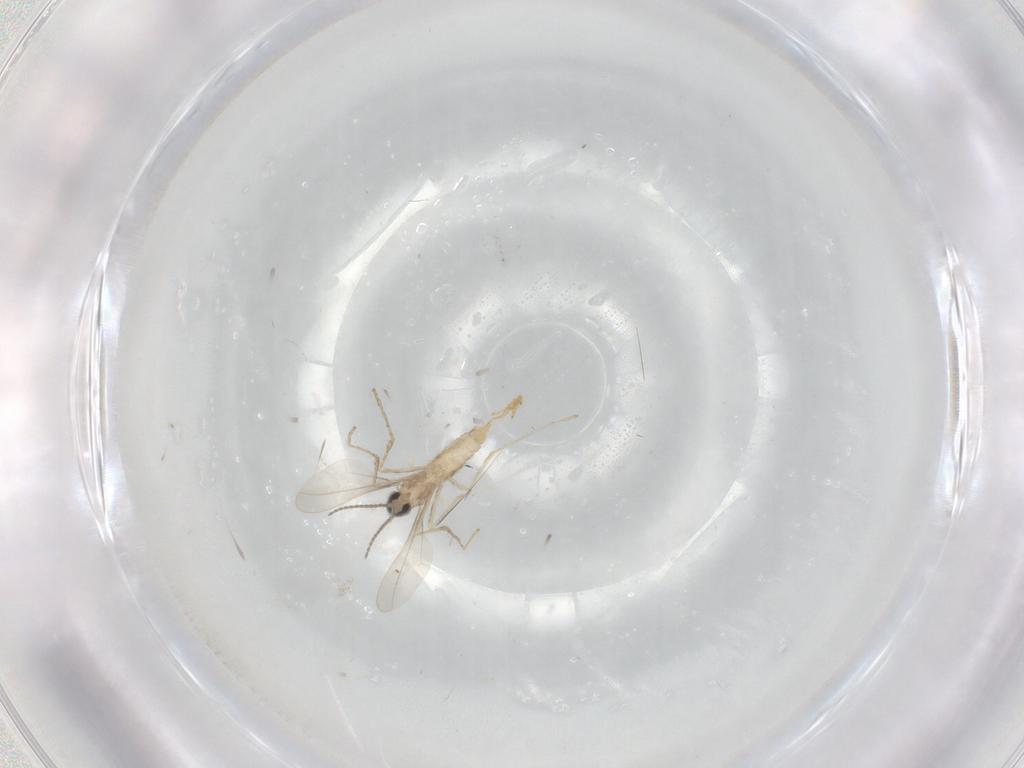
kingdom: Animalia
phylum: Arthropoda
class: Insecta
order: Diptera
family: Cecidomyiidae
